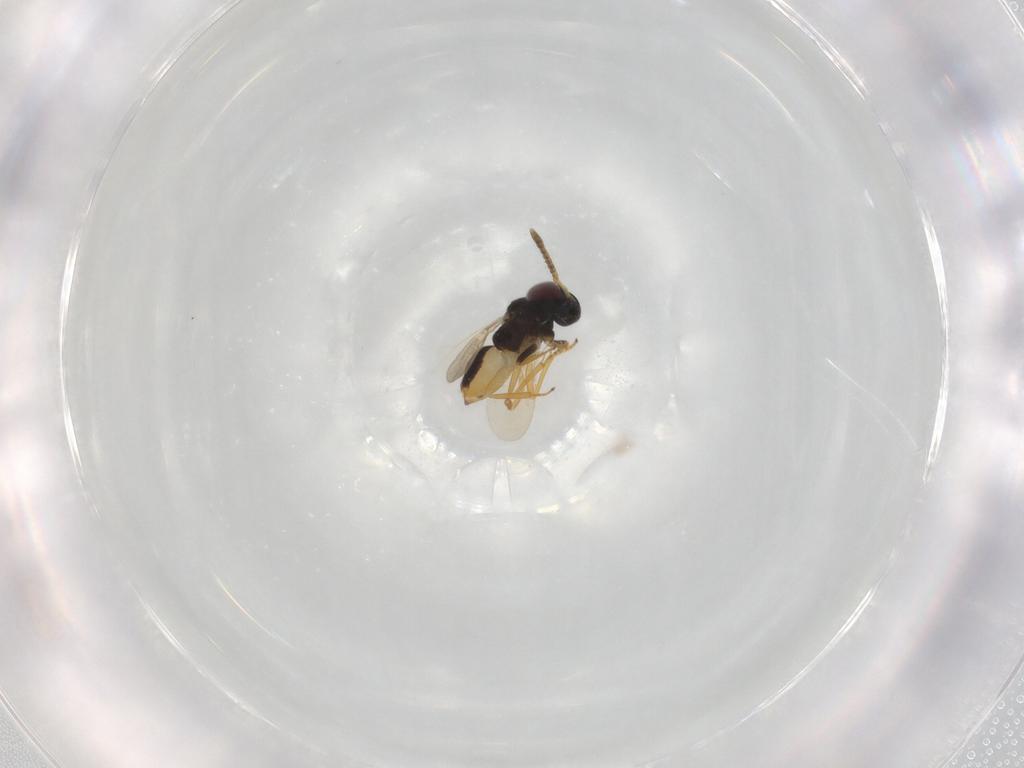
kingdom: Animalia
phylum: Arthropoda
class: Insecta
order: Hymenoptera
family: Encyrtidae
